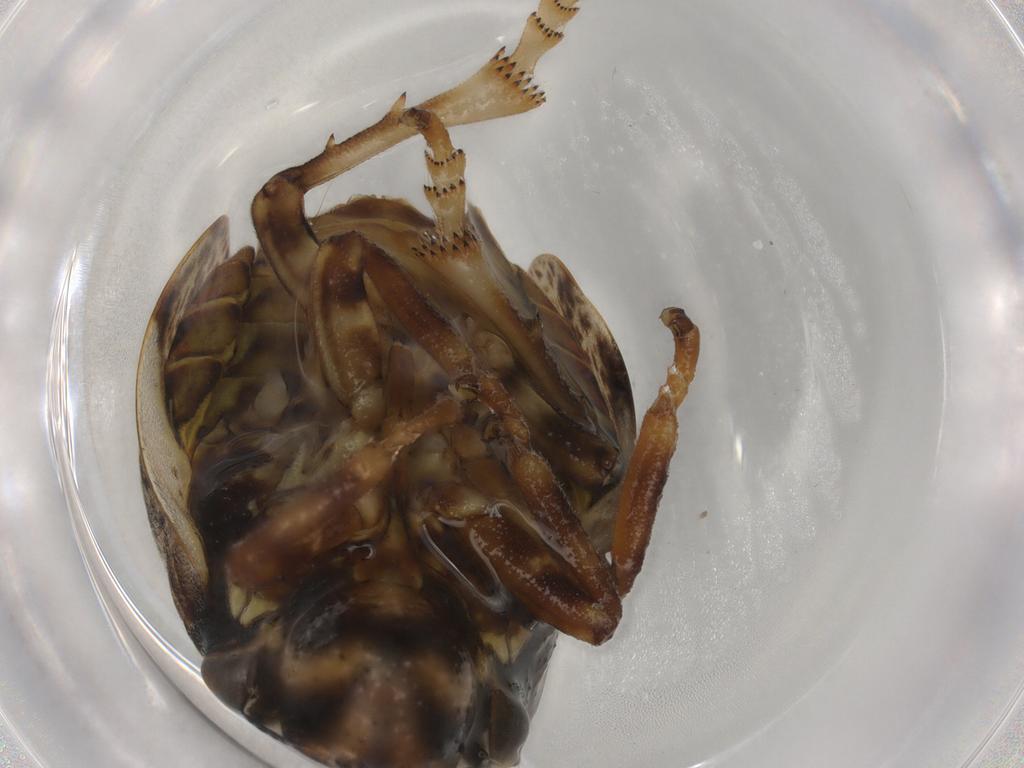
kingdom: Animalia
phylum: Arthropoda
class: Insecta
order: Hemiptera
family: Aphrophoridae
